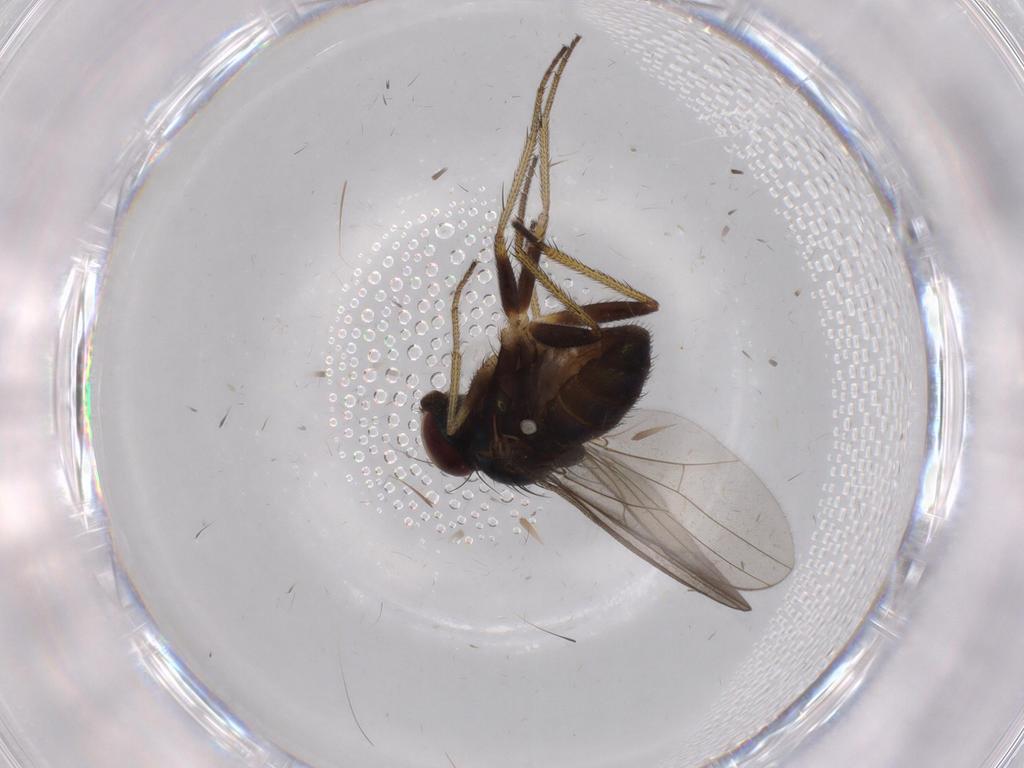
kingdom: Animalia
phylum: Arthropoda
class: Insecta
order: Diptera
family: Dolichopodidae
